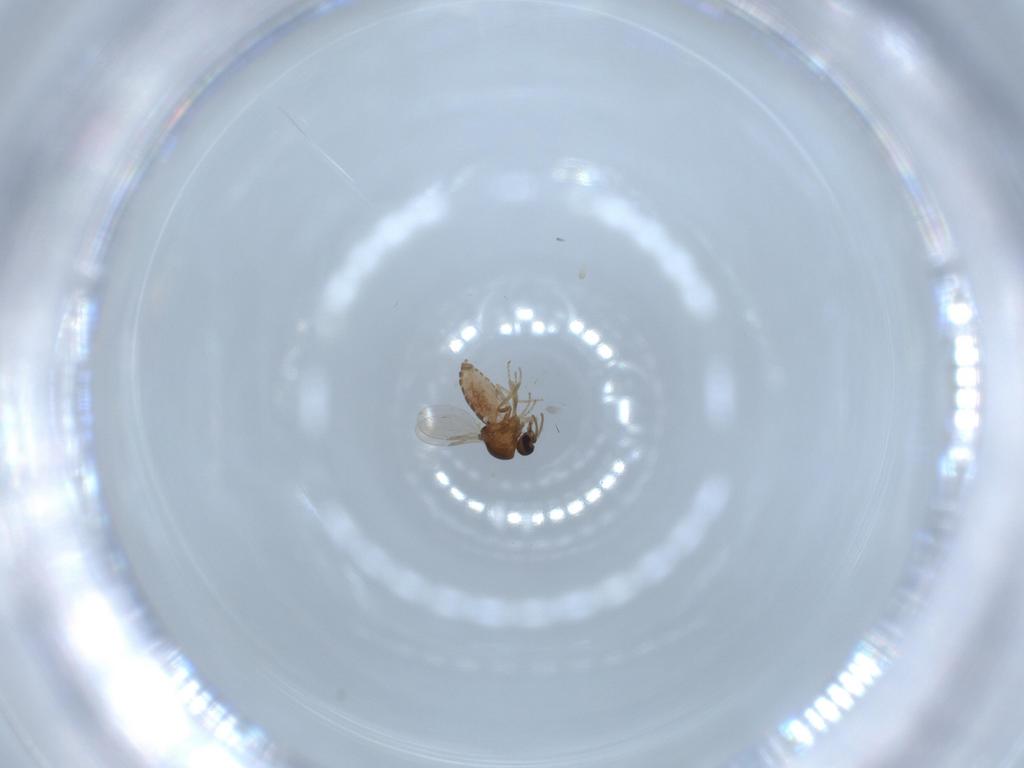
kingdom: Animalia
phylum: Arthropoda
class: Insecta
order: Diptera
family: Ceratopogonidae
